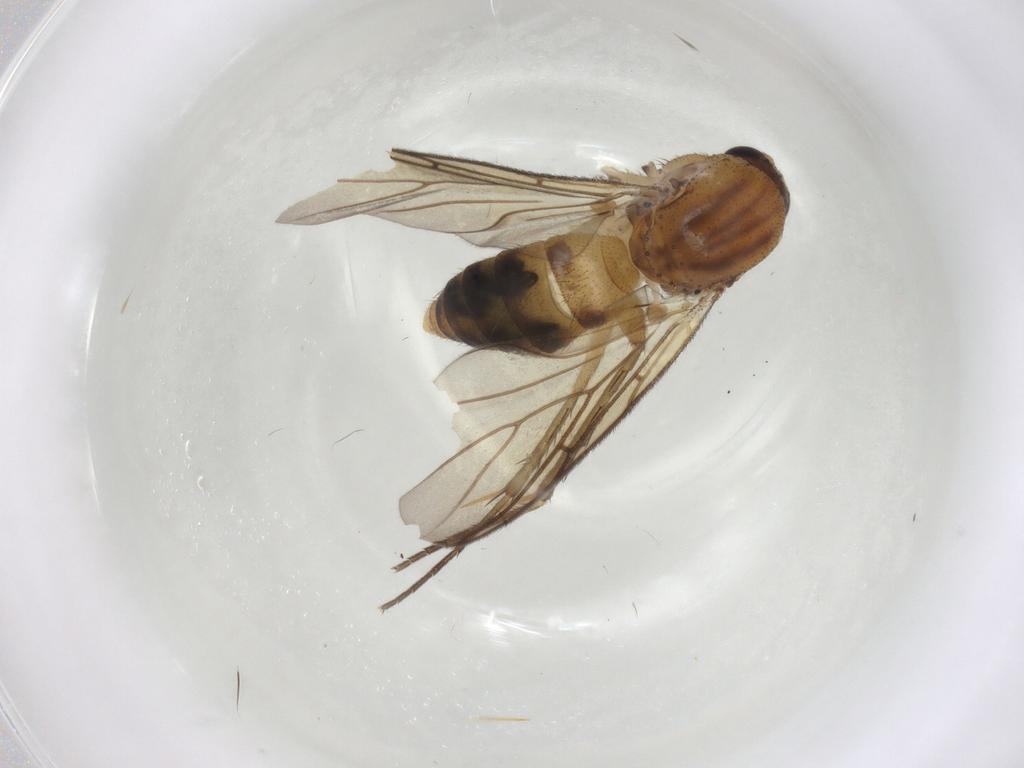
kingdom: Animalia
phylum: Arthropoda
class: Insecta
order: Diptera
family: Mycetophilidae
